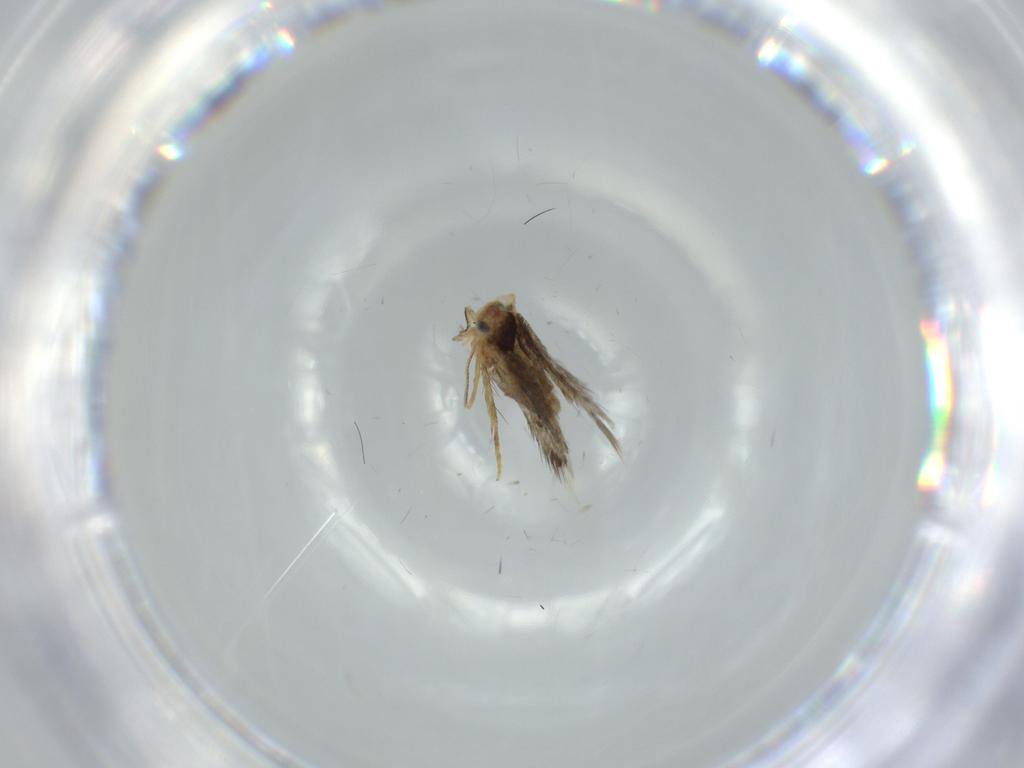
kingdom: Animalia
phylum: Arthropoda
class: Insecta
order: Lepidoptera
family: Nepticulidae
